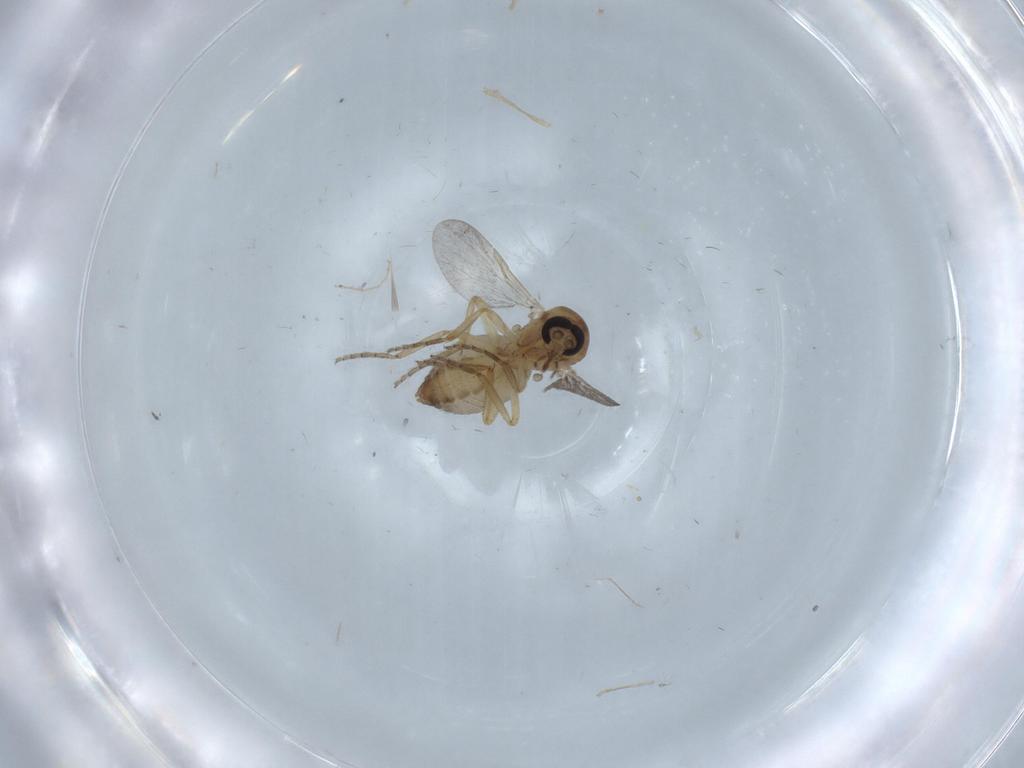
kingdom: Animalia
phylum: Arthropoda
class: Insecta
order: Diptera
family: Ceratopogonidae
